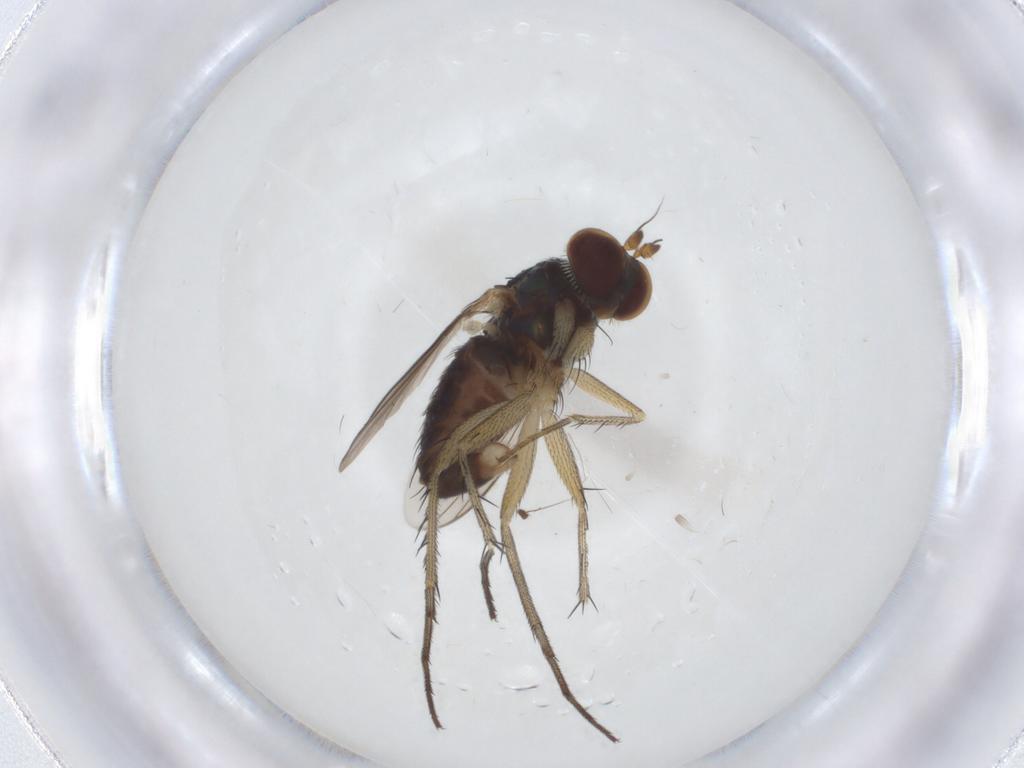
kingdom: Animalia
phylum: Arthropoda
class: Insecta
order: Diptera
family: Dolichopodidae
